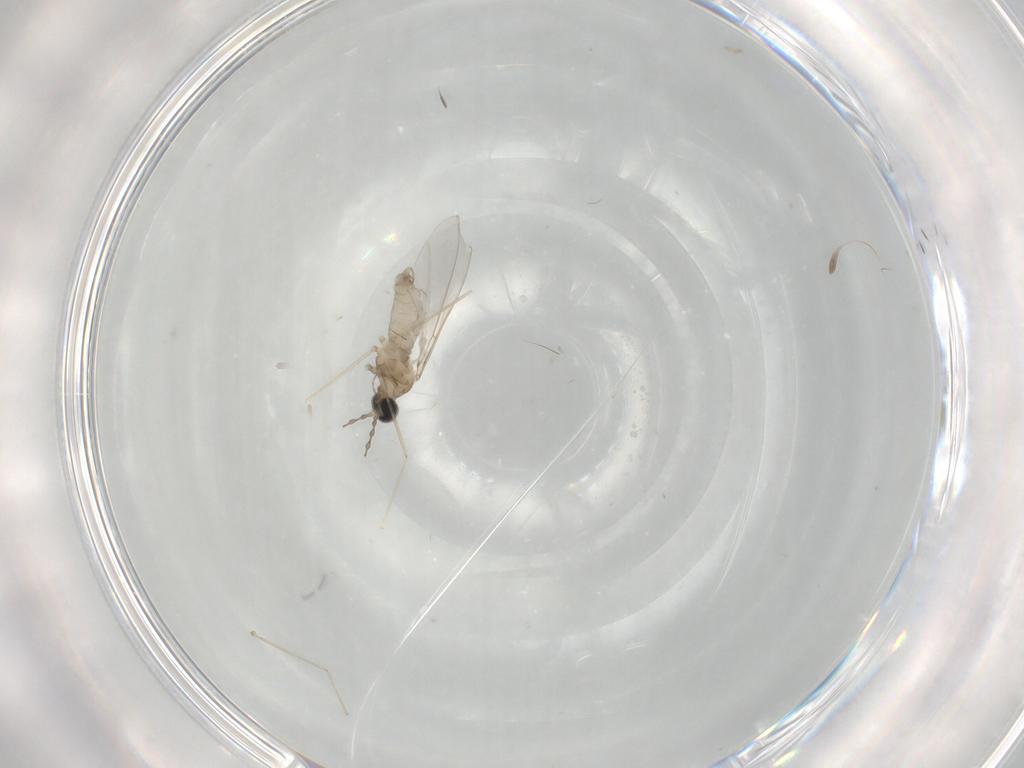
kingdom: Animalia
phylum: Arthropoda
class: Insecta
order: Diptera
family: Cecidomyiidae
